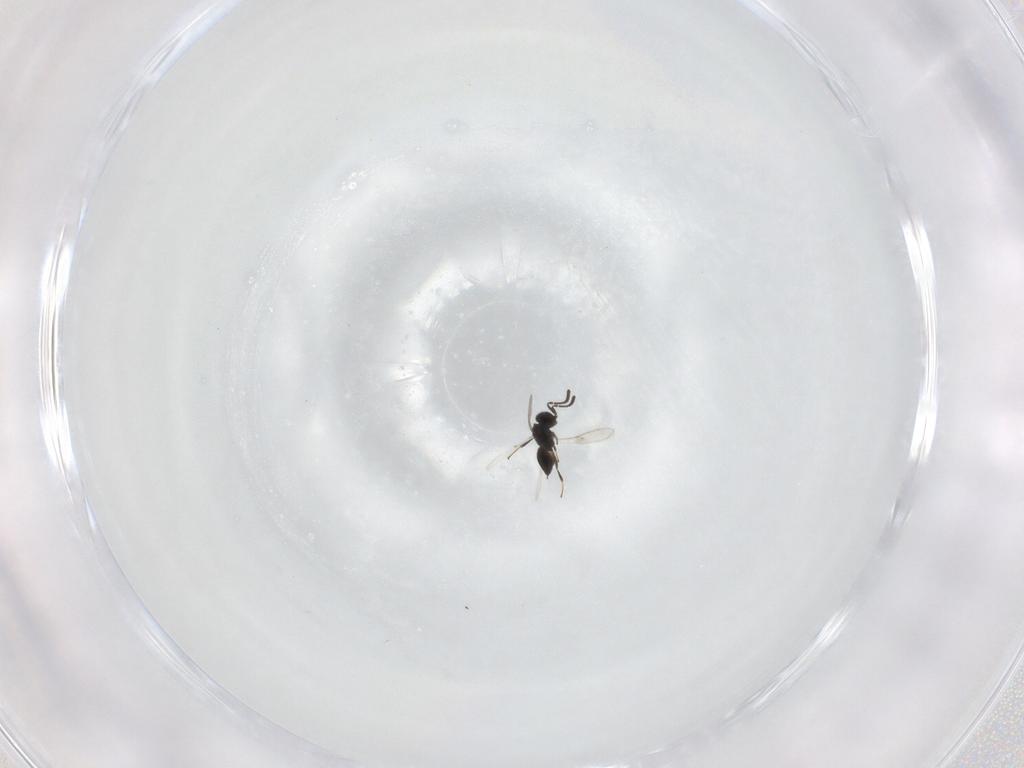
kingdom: Animalia
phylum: Arthropoda
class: Insecta
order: Hymenoptera
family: Scelionidae
